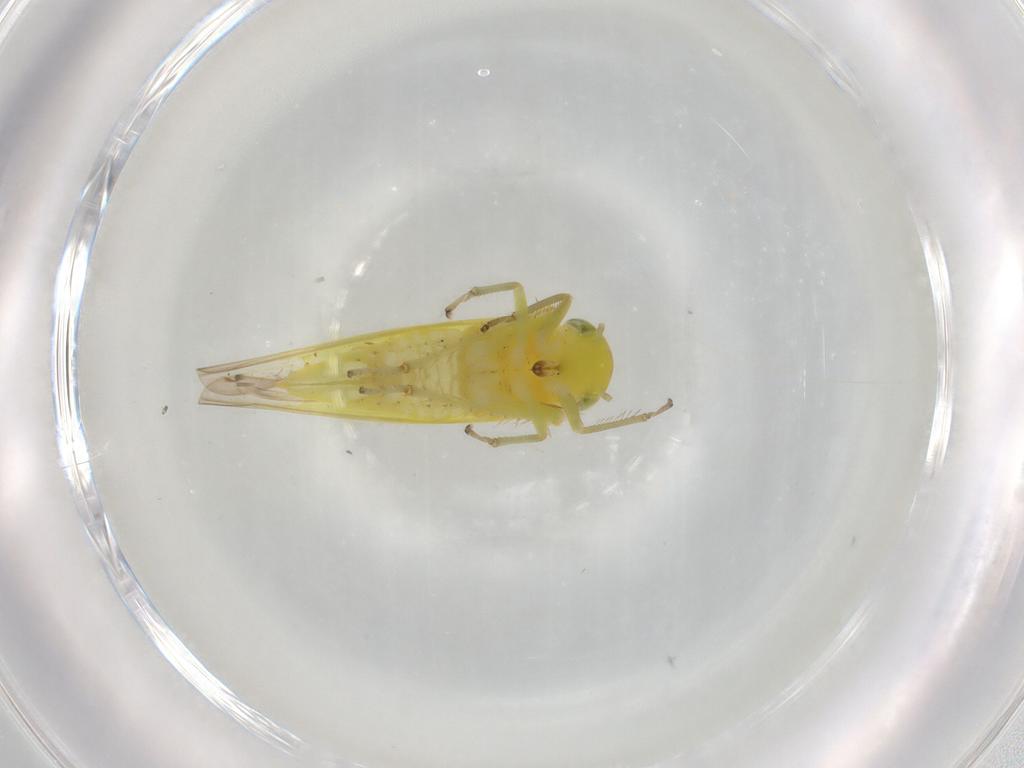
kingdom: Animalia
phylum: Arthropoda
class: Insecta
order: Hemiptera
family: Cicadellidae
